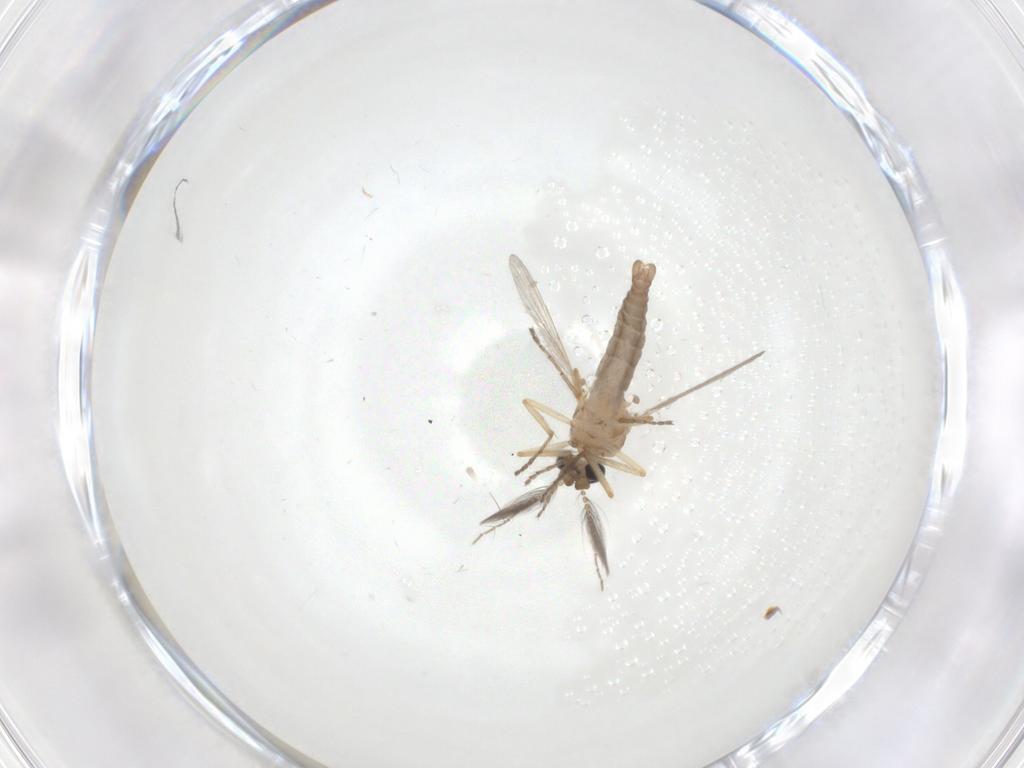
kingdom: Animalia
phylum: Arthropoda
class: Insecta
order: Diptera
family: Ceratopogonidae
